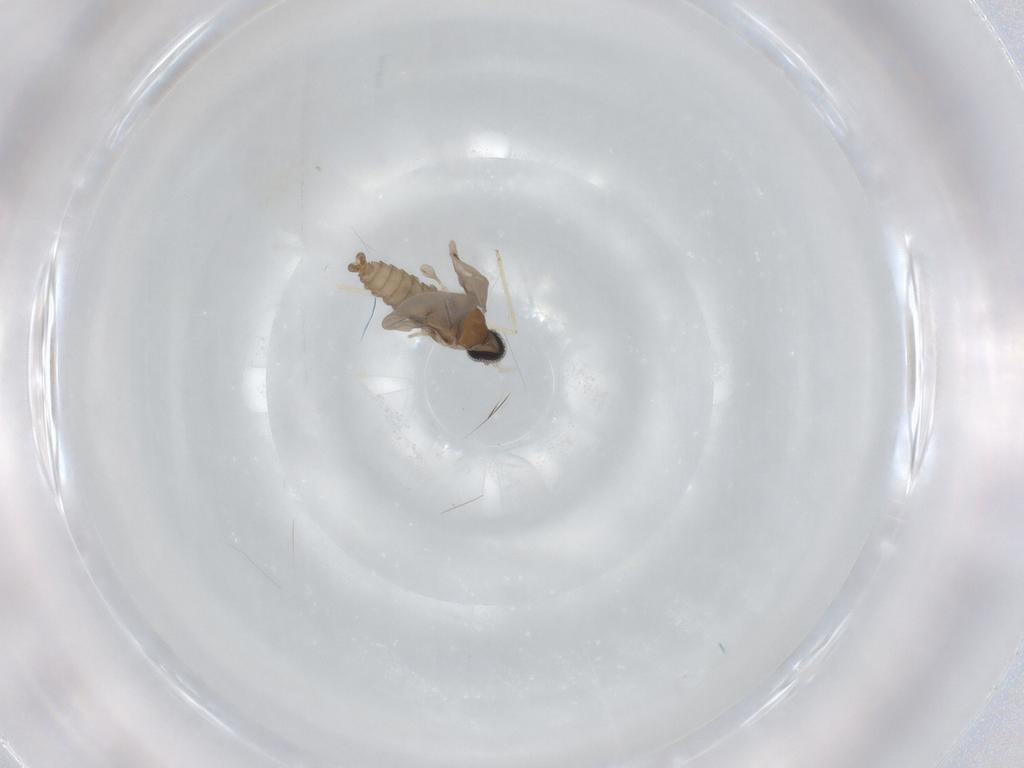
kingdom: Animalia
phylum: Arthropoda
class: Insecta
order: Diptera
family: Cecidomyiidae
